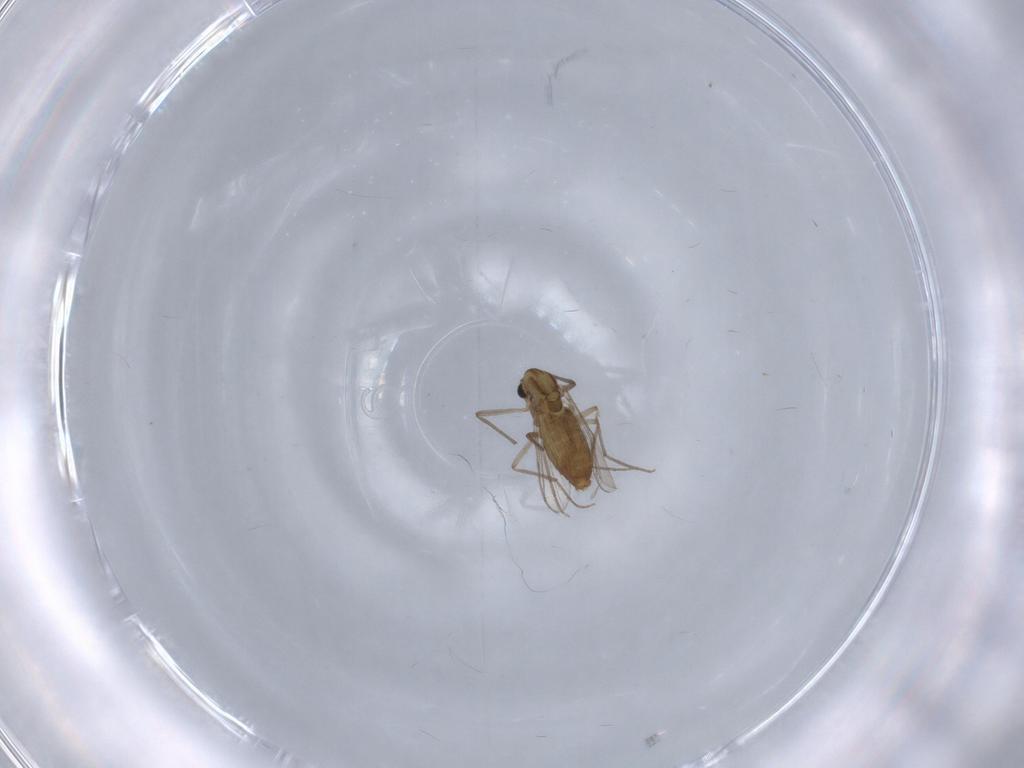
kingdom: Animalia
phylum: Arthropoda
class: Insecta
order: Diptera
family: Chironomidae
